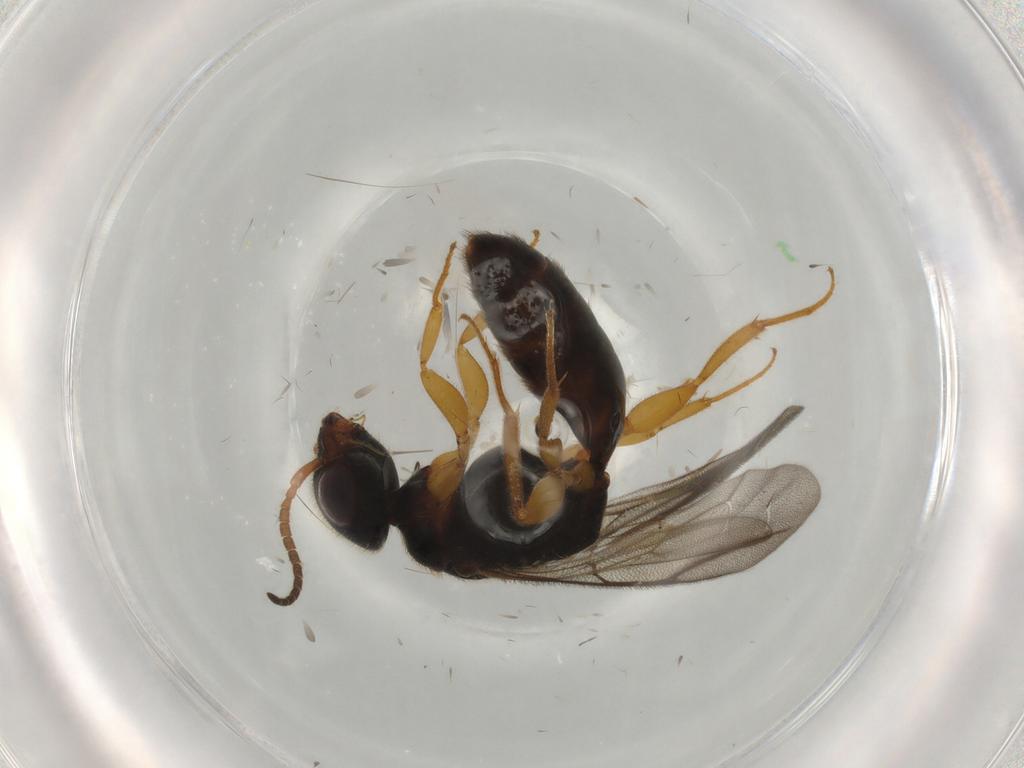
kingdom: Animalia
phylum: Arthropoda
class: Insecta
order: Hymenoptera
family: Bethylidae
